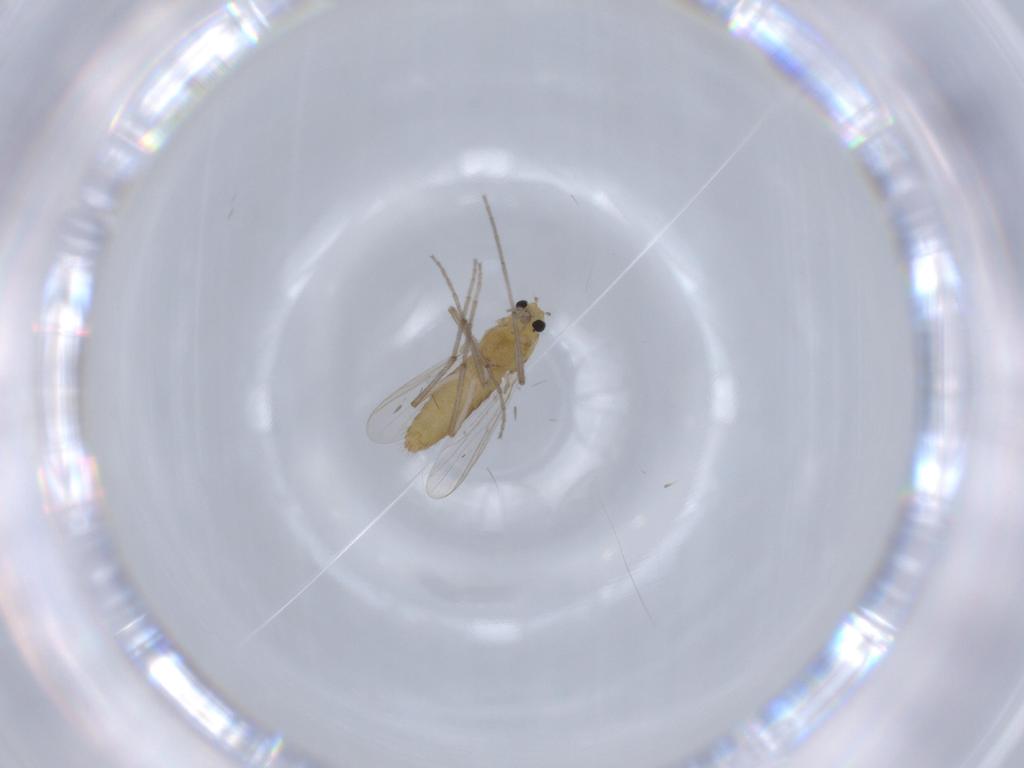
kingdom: Animalia
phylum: Arthropoda
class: Insecta
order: Diptera
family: Chironomidae
